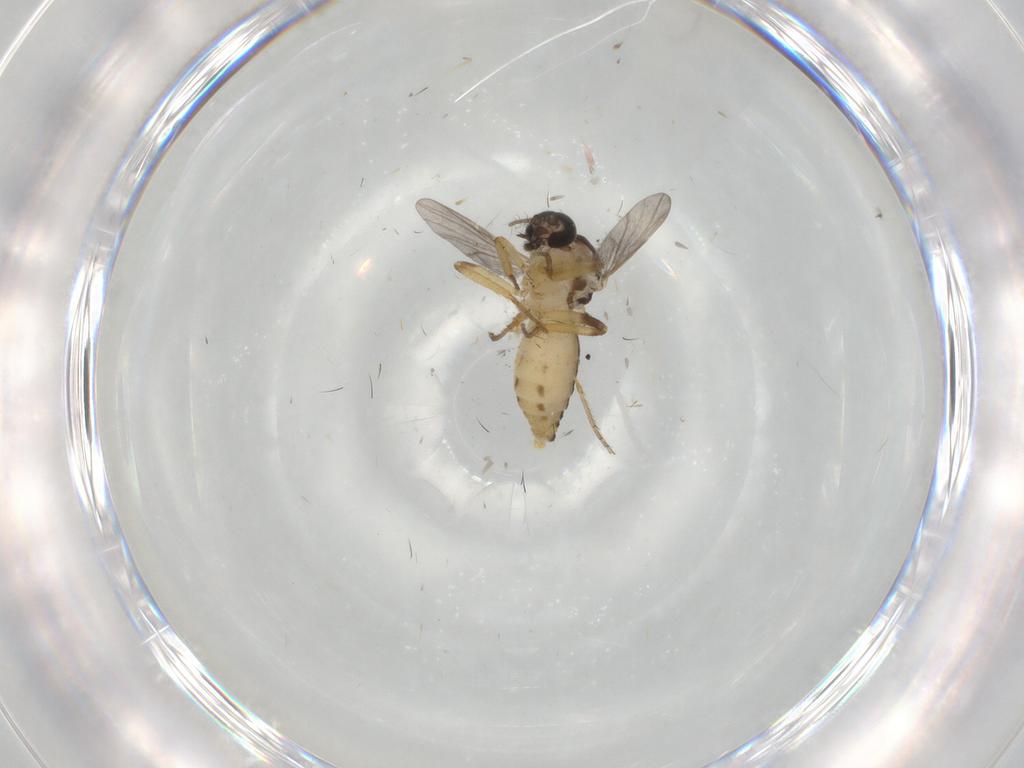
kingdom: Animalia
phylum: Arthropoda
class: Insecta
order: Diptera
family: Ceratopogonidae
